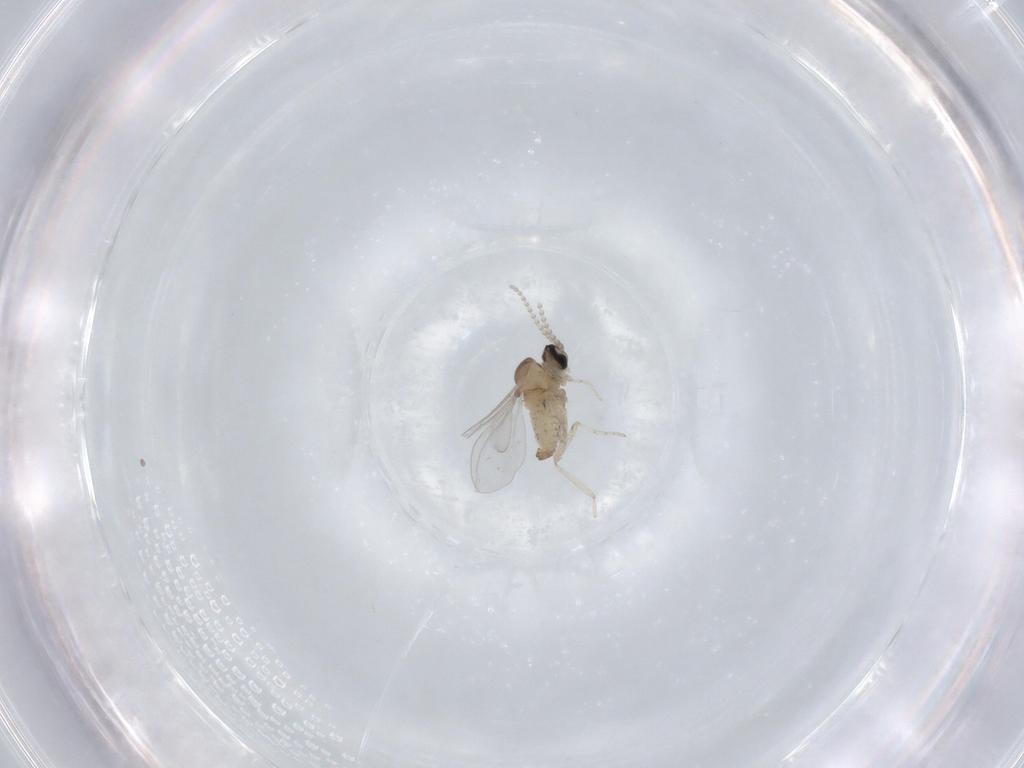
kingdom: Animalia
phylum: Arthropoda
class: Insecta
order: Diptera
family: Cecidomyiidae
